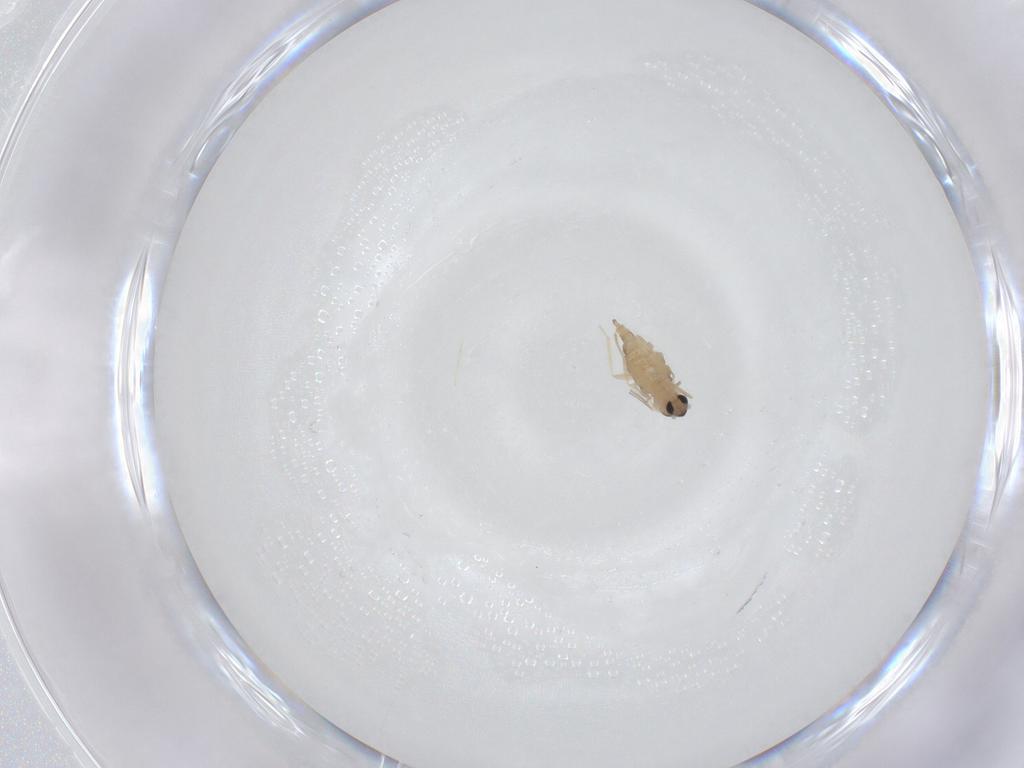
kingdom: Animalia
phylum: Arthropoda
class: Insecta
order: Diptera
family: Cecidomyiidae
